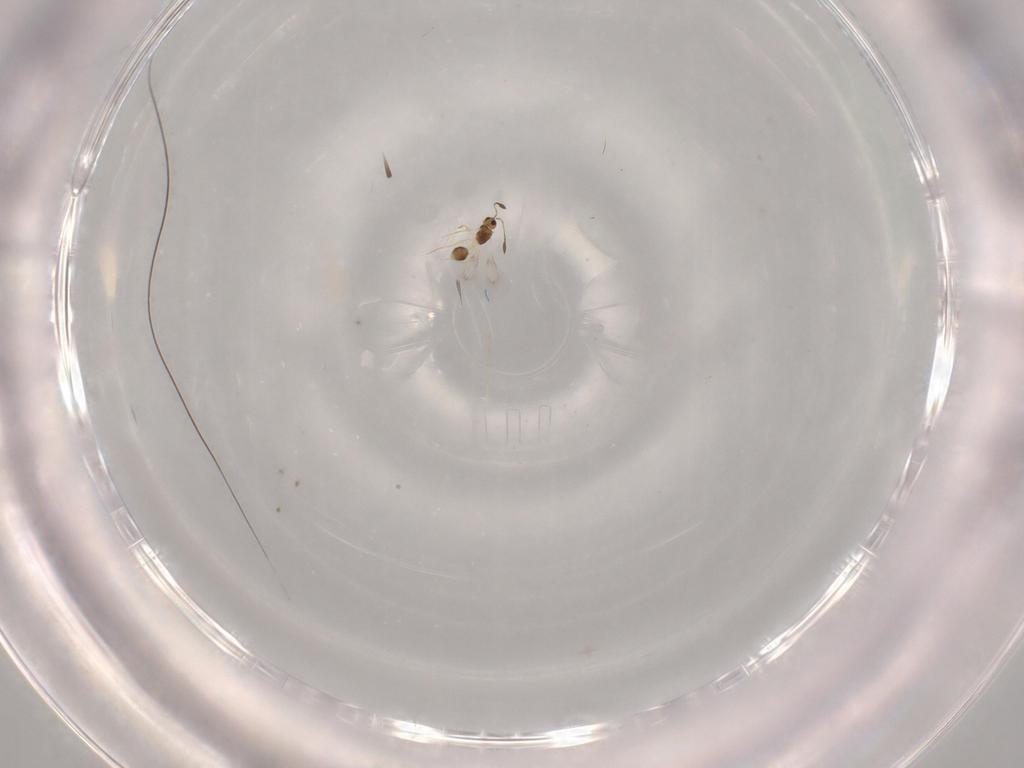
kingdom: Animalia
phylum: Arthropoda
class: Insecta
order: Hymenoptera
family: Mymarommatidae
